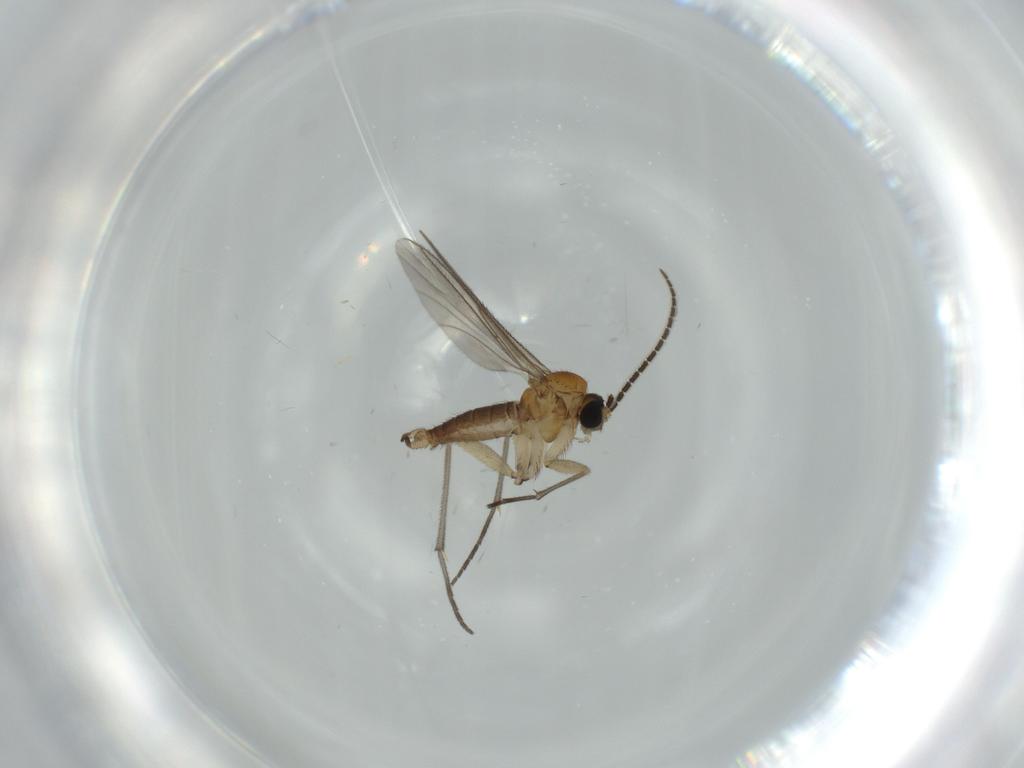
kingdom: Animalia
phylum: Arthropoda
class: Insecta
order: Diptera
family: Sciaridae
